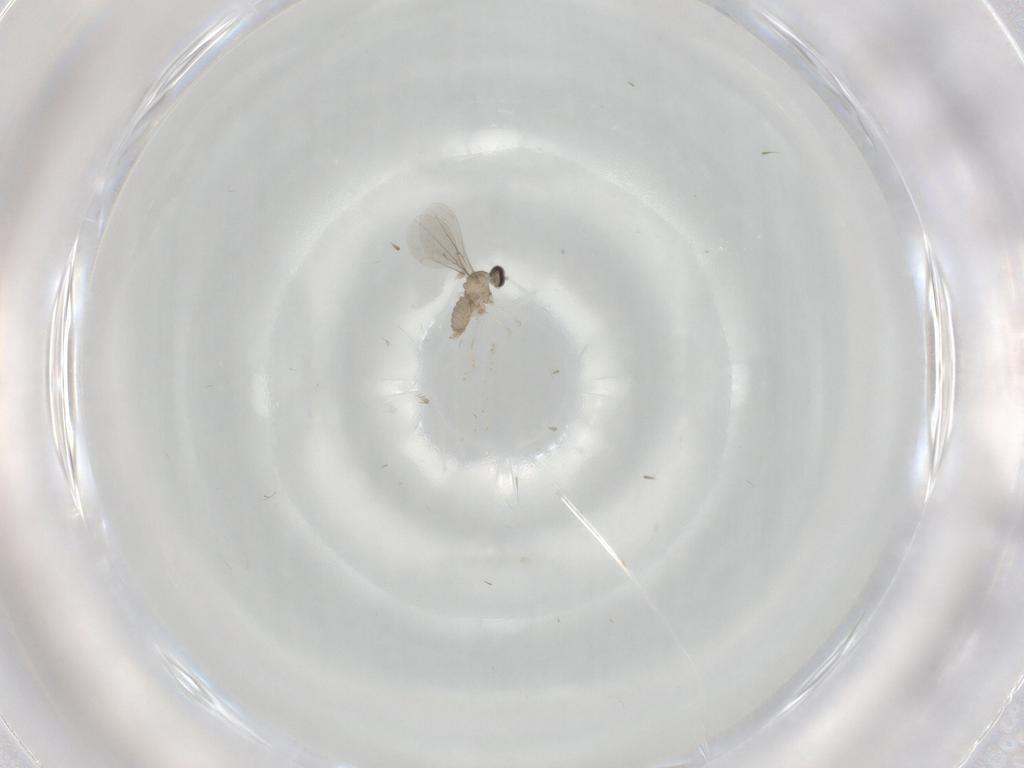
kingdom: Animalia
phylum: Arthropoda
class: Insecta
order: Diptera
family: Cecidomyiidae
